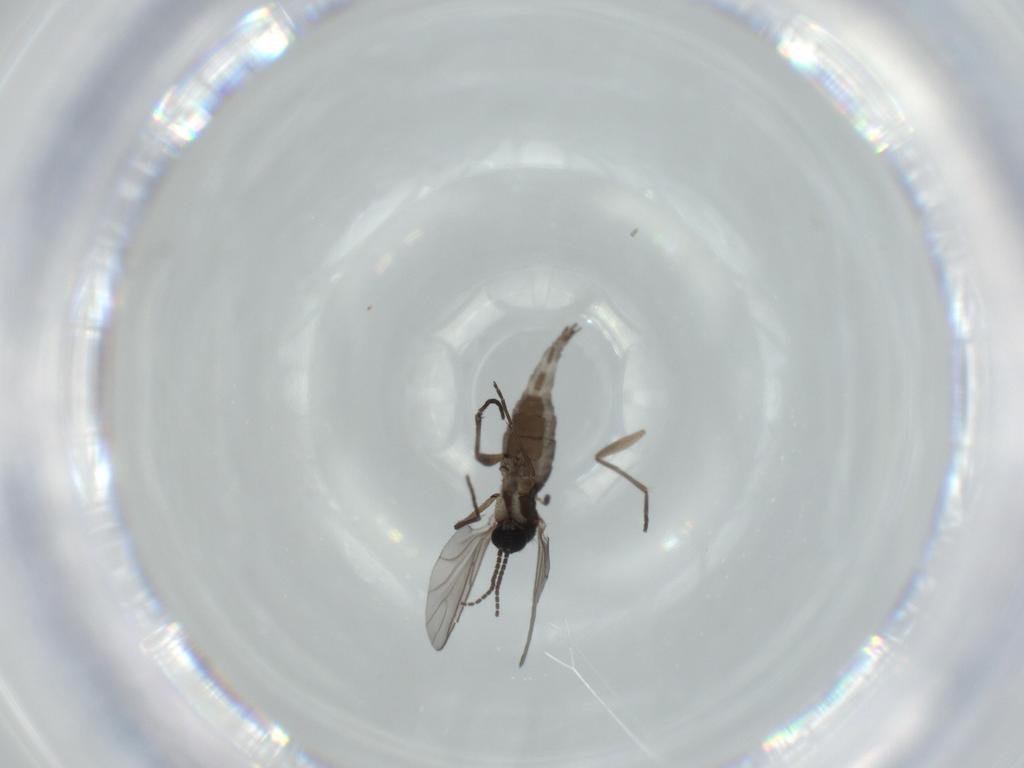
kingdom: Animalia
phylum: Arthropoda
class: Insecta
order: Diptera
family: Sciaridae
